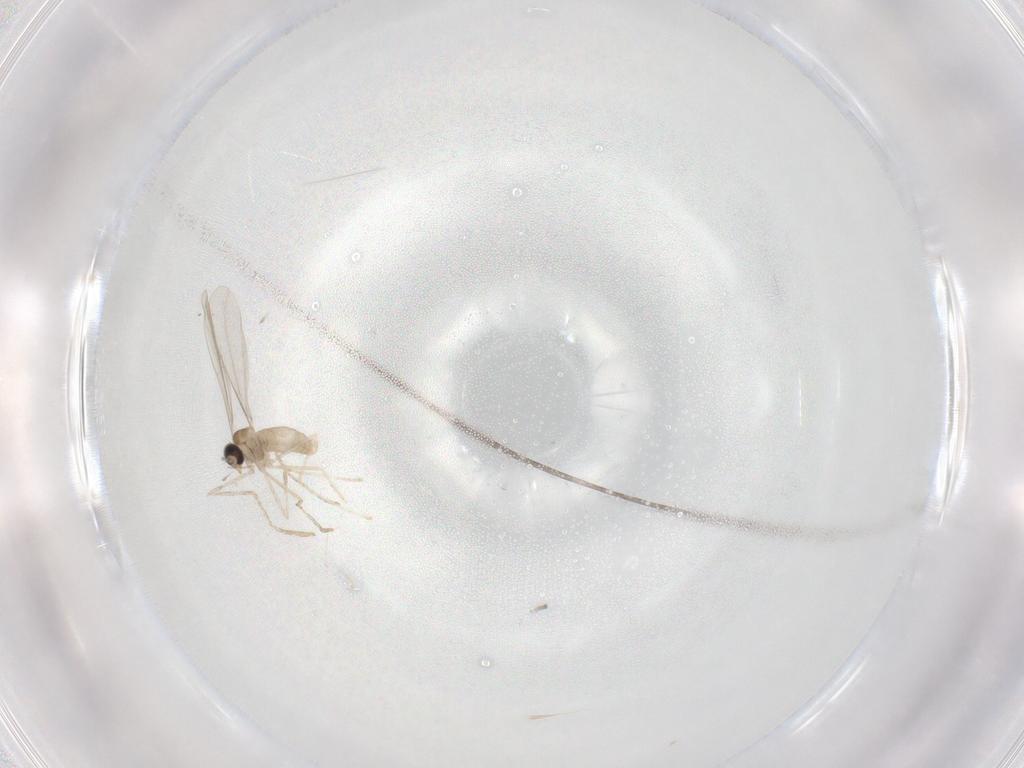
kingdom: Animalia
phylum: Arthropoda
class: Insecta
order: Diptera
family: Cecidomyiidae
